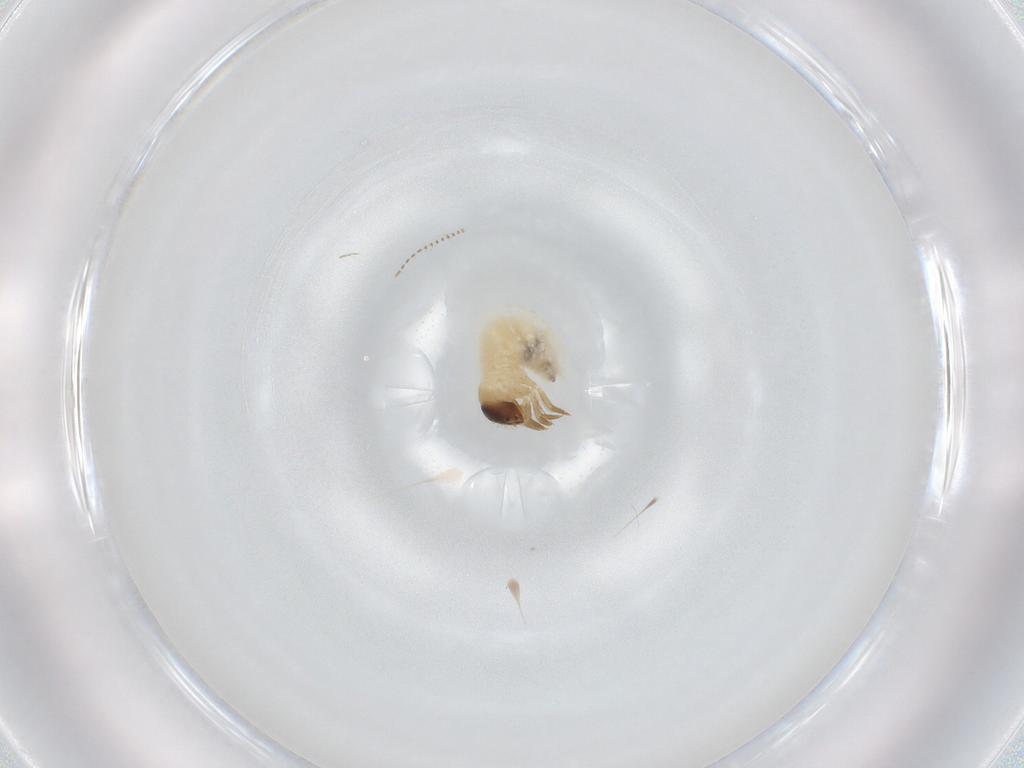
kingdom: Animalia
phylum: Arthropoda
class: Insecta
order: Diptera
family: Ceratopogonidae
